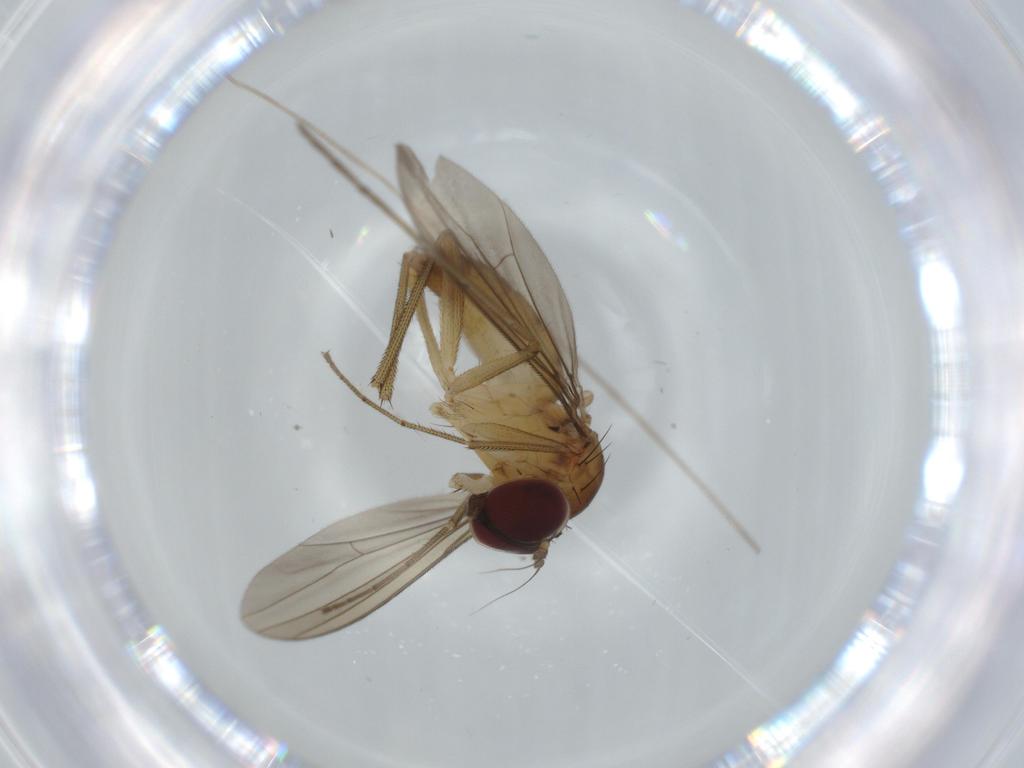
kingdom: Animalia
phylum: Arthropoda
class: Insecta
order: Diptera
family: Dolichopodidae
